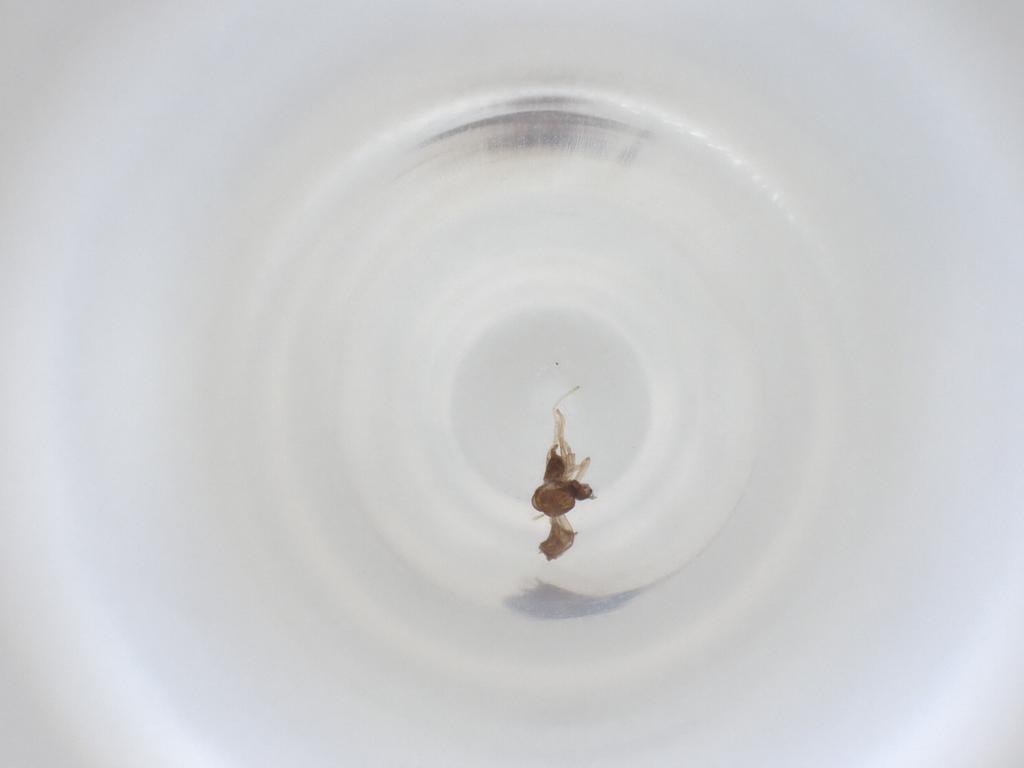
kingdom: Animalia
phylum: Arthropoda
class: Insecta
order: Diptera
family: Cecidomyiidae
